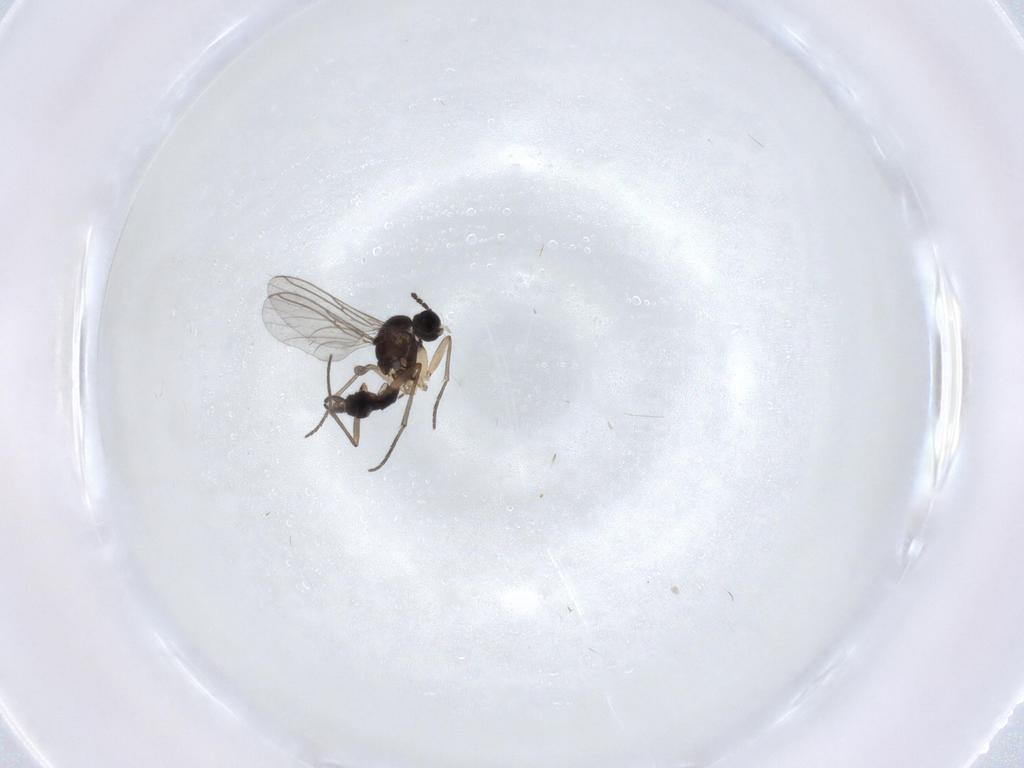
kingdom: Animalia
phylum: Arthropoda
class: Insecta
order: Diptera
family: Sciaridae
